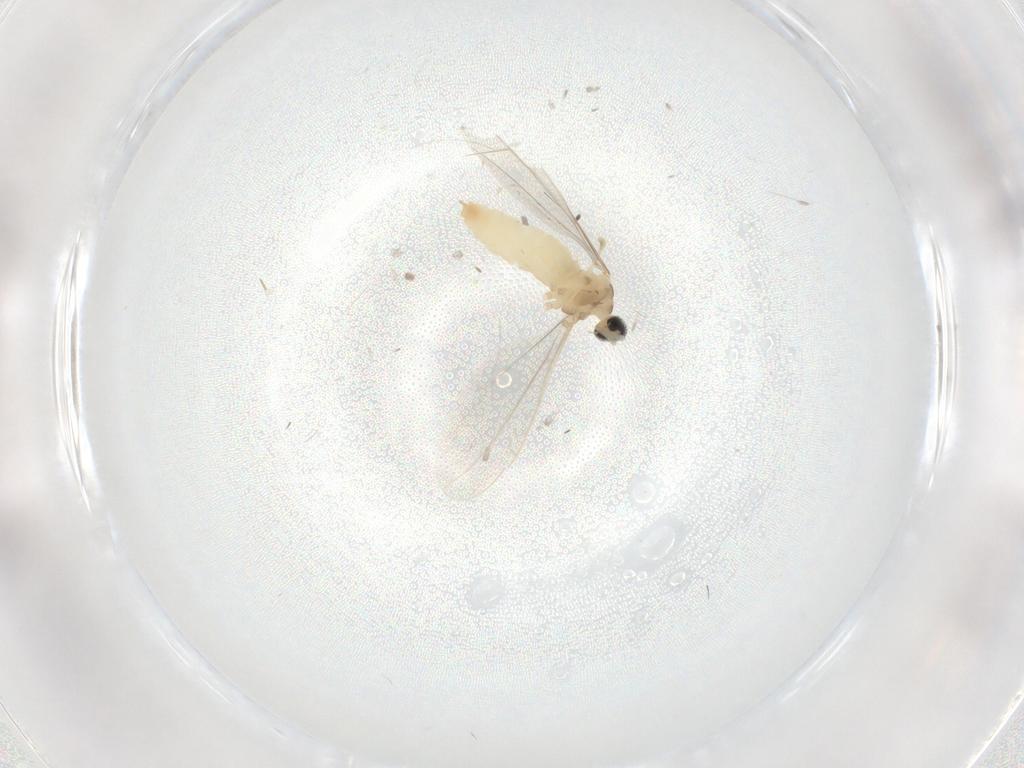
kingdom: Animalia
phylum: Arthropoda
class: Insecta
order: Diptera
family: Cecidomyiidae
